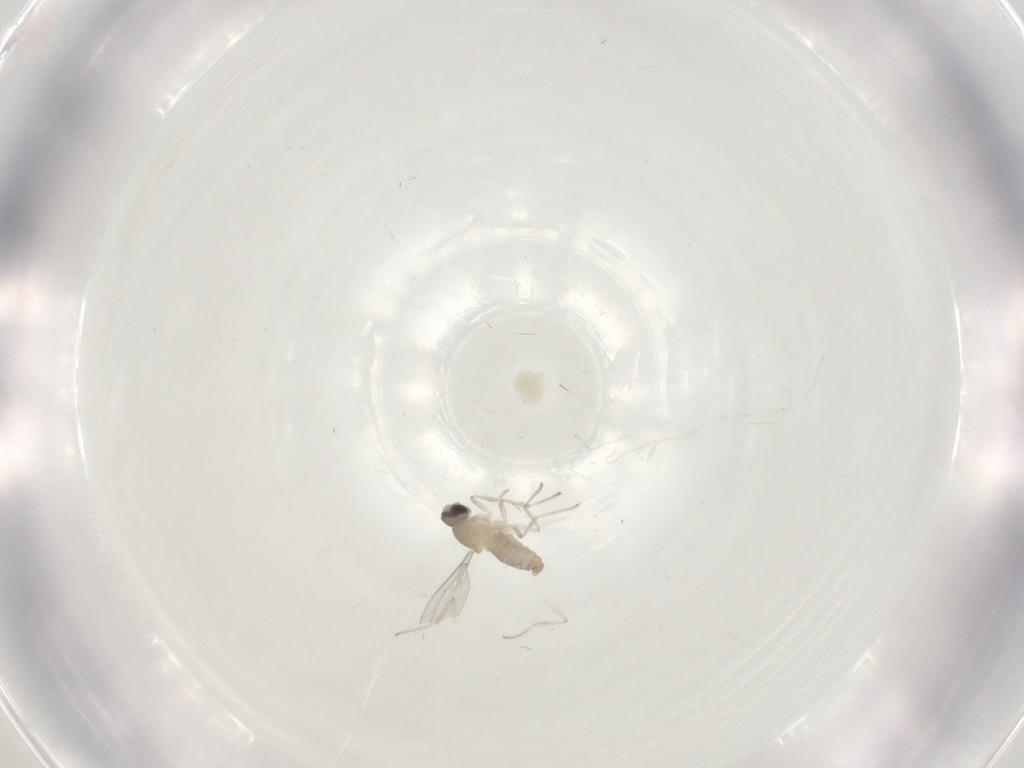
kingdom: Animalia
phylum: Arthropoda
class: Insecta
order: Diptera
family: Cecidomyiidae
